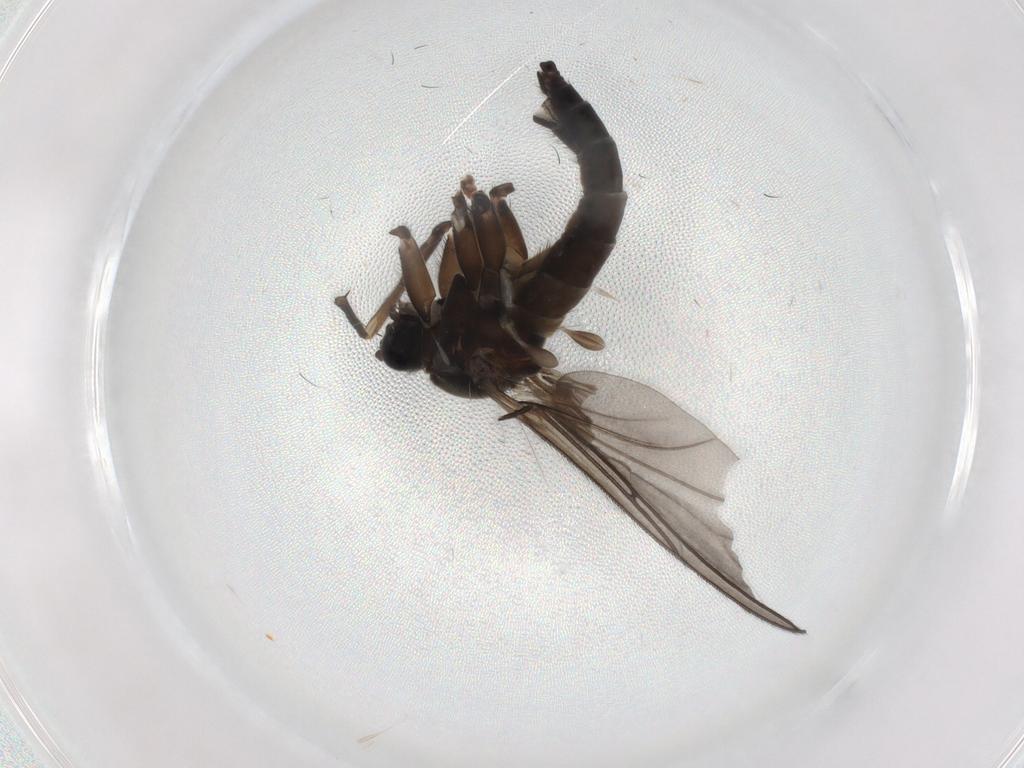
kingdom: Animalia
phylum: Arthropoda
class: Insecta
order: Diptera
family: Sciaridae
